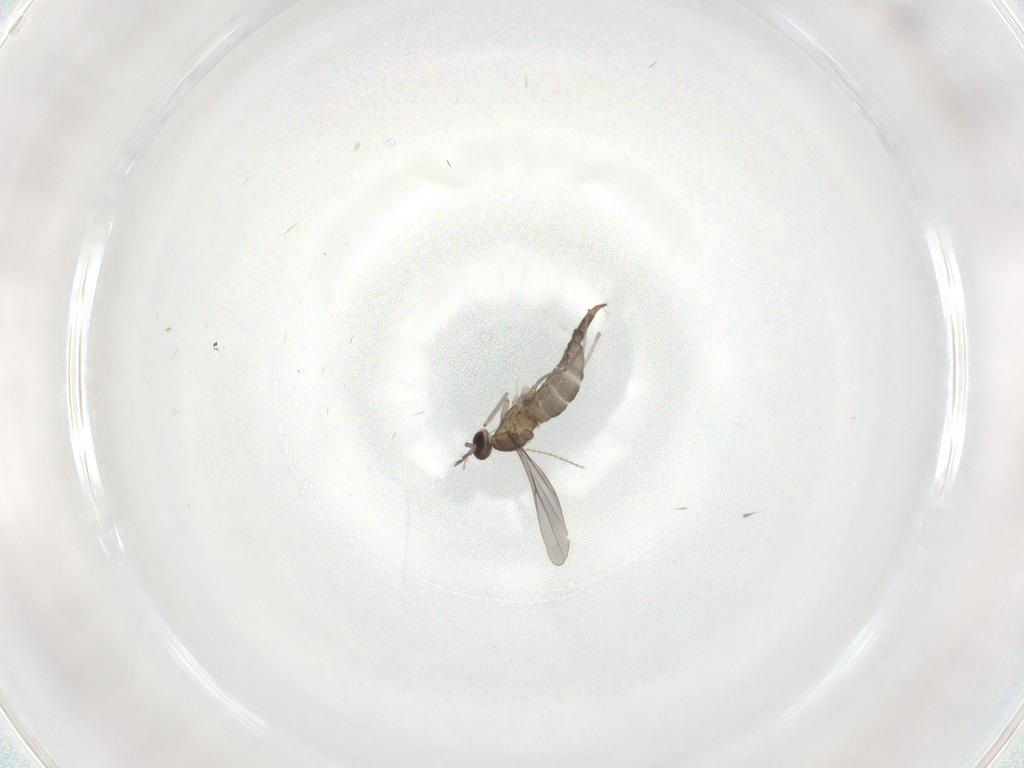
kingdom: Animalia
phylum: Arthropoda
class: Insecta
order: Diptera
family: Cecidomyiidae
